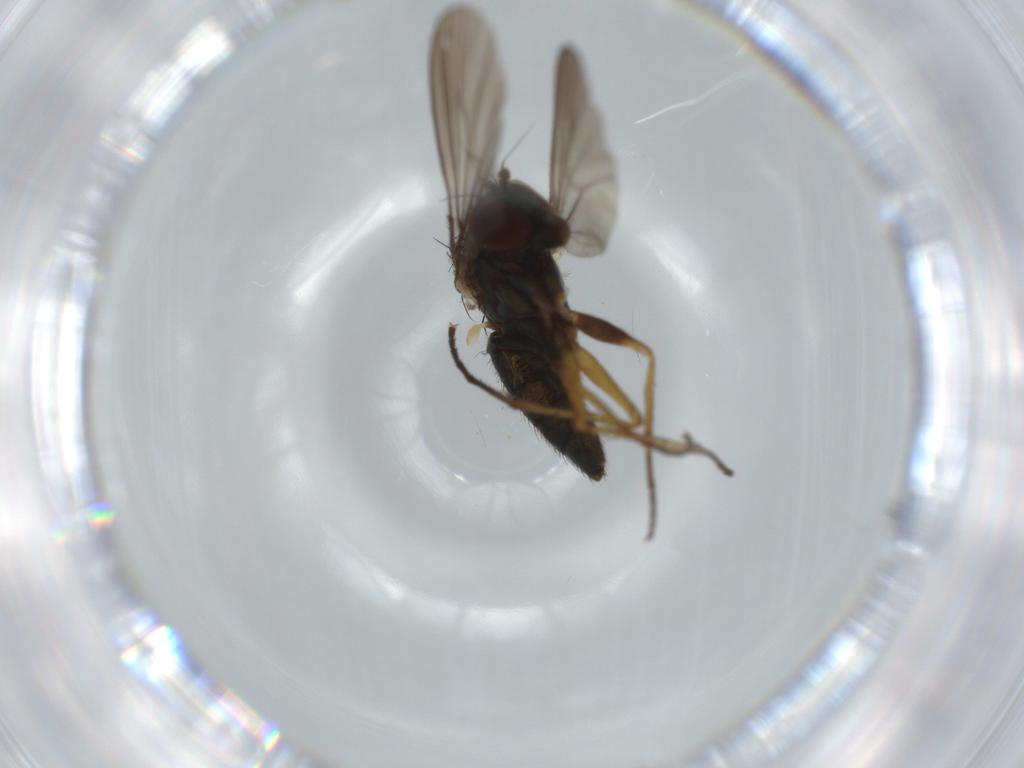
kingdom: Animalia
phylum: Arthropoda
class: Insecta
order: Diptera
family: Dolichopodidae
